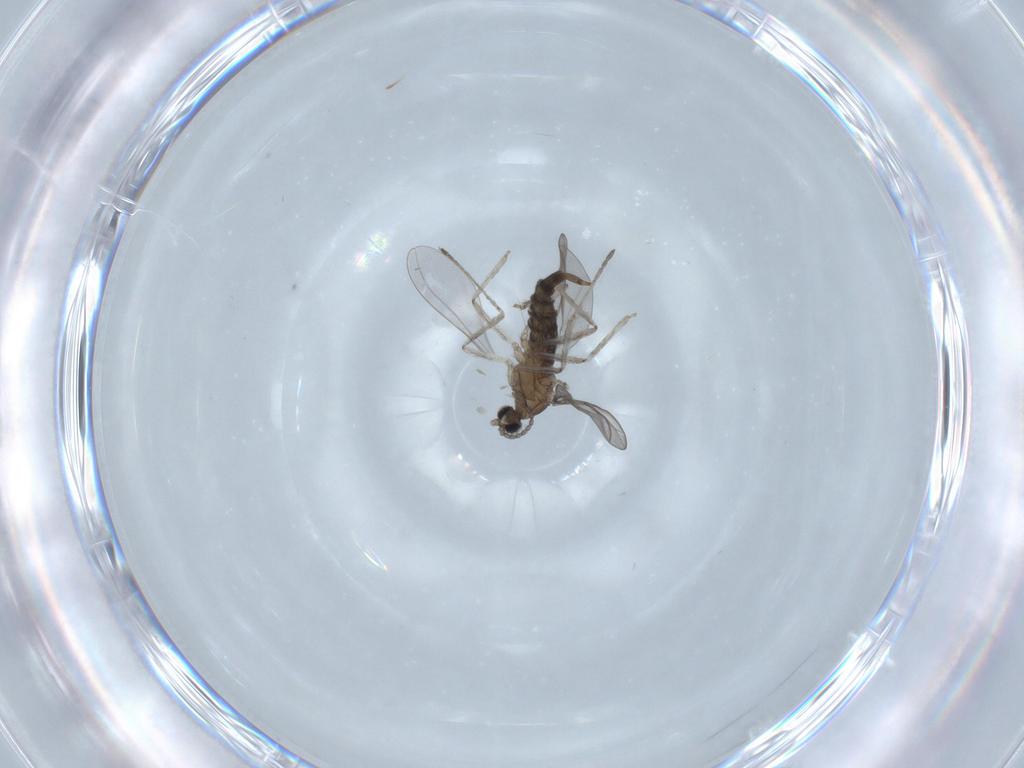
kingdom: Animalia
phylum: Arthropoda
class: Insecta
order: Diptera
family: Cecidomyiidae
